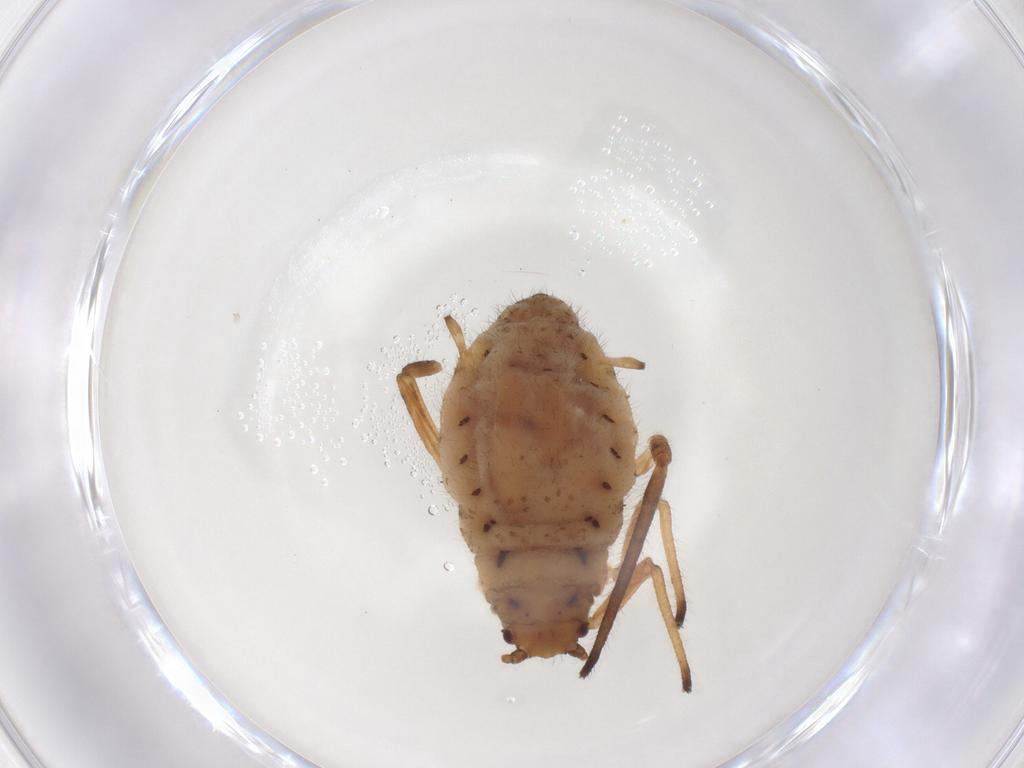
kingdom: Animalia
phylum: Arthropoda
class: Insecta
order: Hemiptera
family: Aphididae
